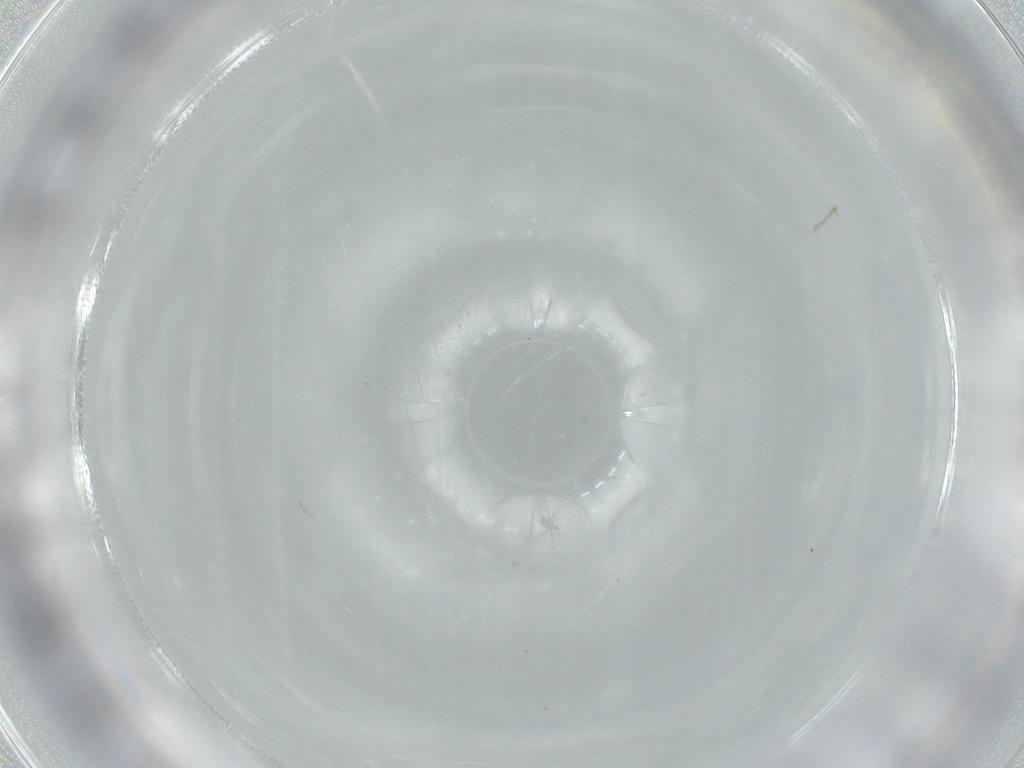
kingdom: Animalia
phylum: Arthropoda
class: Insecta
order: Diptera
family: Cecidomyiidae
